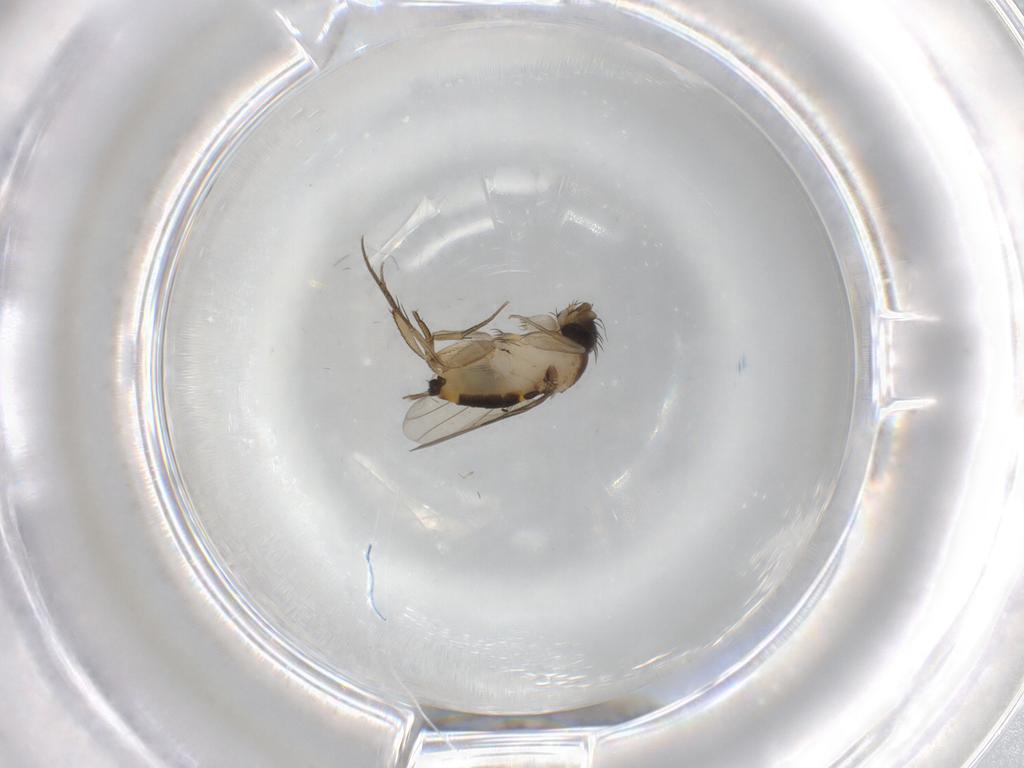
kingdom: Animalia
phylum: Arthropoda
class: Insecta
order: Diptera
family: Phoridae
